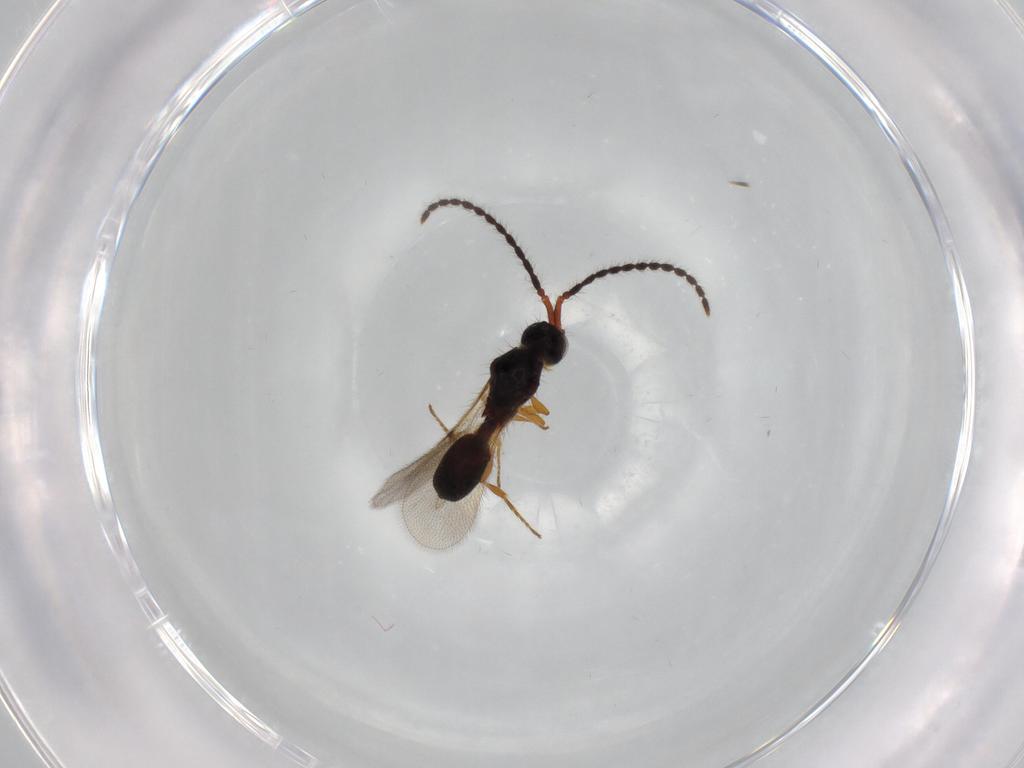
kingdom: Animalia
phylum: Arthropoda
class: Insecta
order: Hymenoptera
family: Diapriidae
